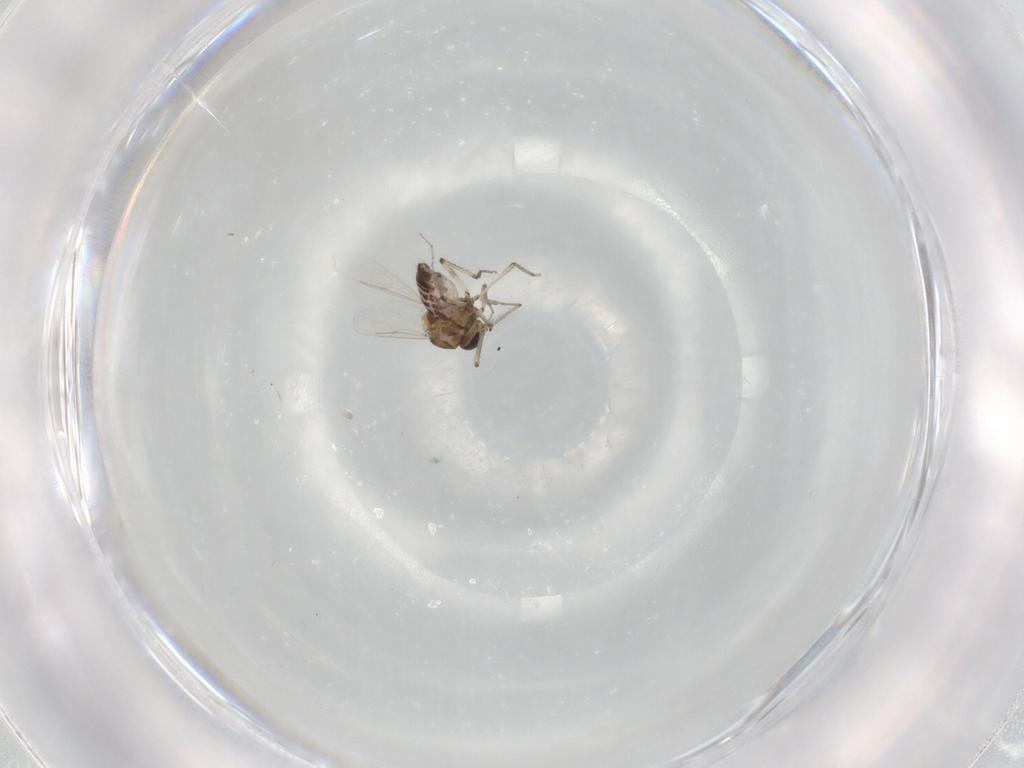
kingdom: Animalia
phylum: Arthropoda
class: Insecta
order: Diptera
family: Ceratopogonidae
